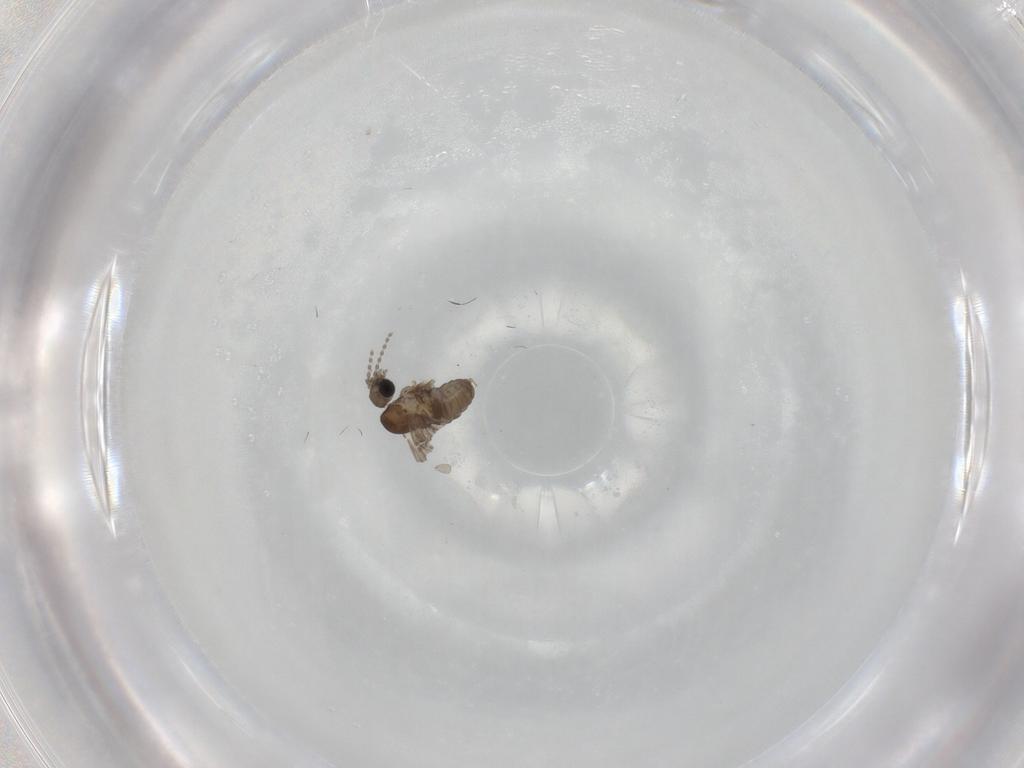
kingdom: Animalia
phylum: Arthropoda
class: Insecta
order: Diptera
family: Psychodidae
